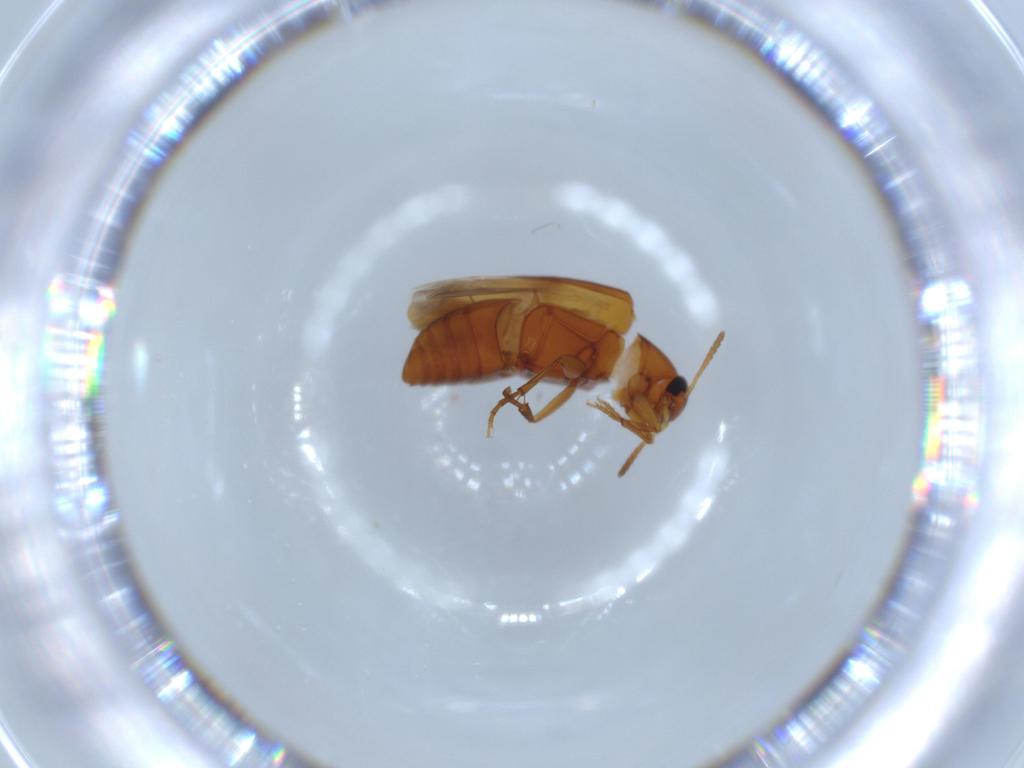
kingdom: Animalia
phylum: Arthropoda
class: Insecta
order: Coleoptera
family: Scraptiidae
